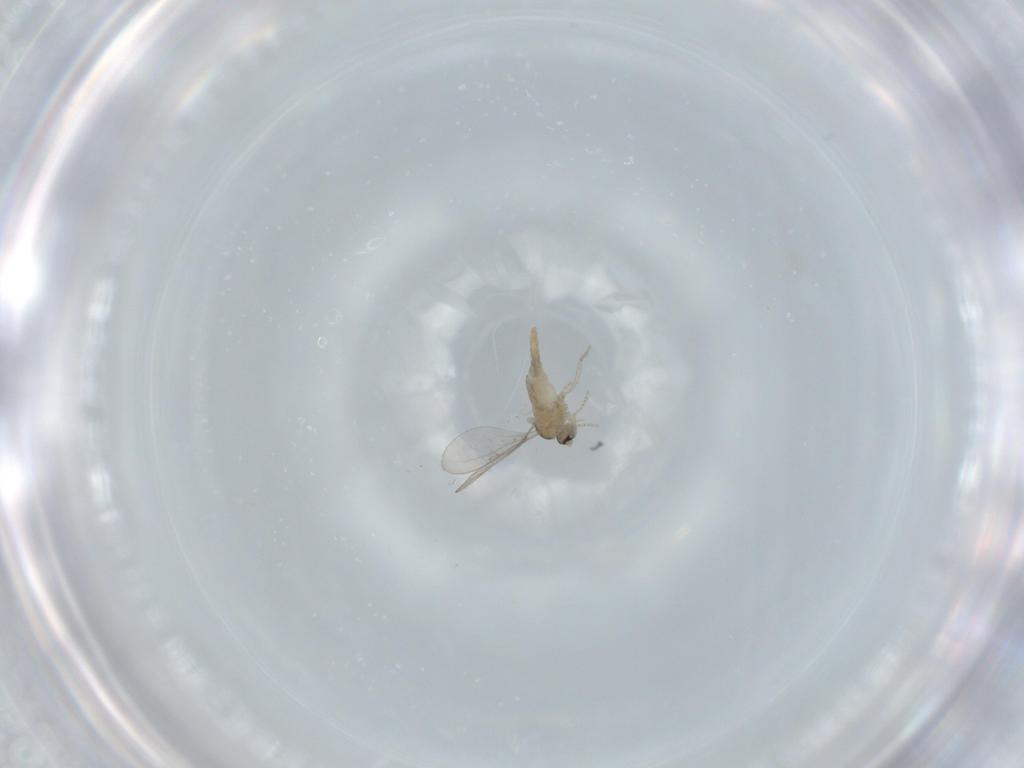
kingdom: Animalia
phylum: Arthropoda
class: Insecta
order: Diptera
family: Cecidomyiidae
